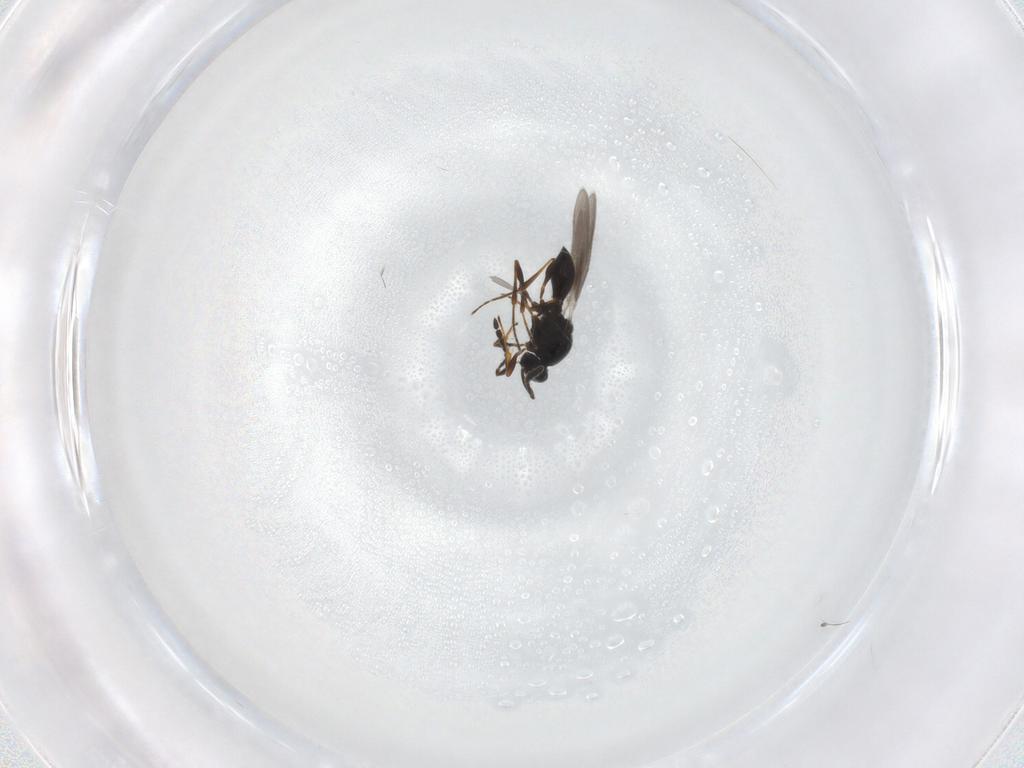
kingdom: Animalia
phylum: Arthropoda
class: Insecta
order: Hymenoptera
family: Platygastridae
